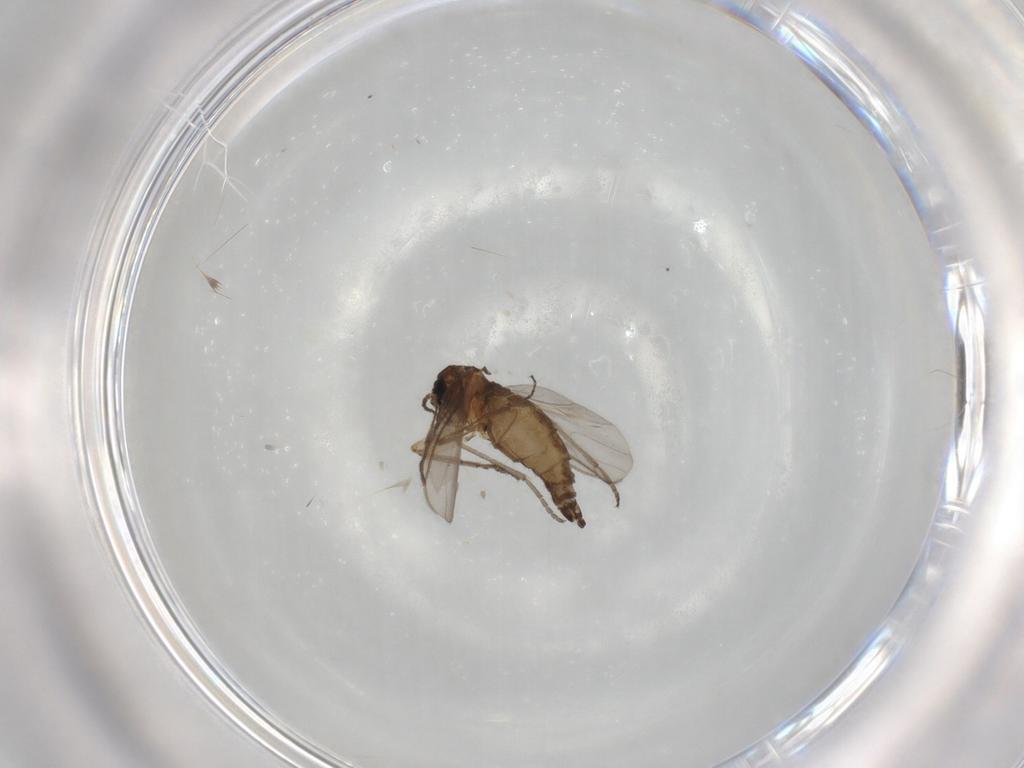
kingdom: Animalia
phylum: Arthropoda
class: Insecta
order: Diptera
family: Sciaridae
